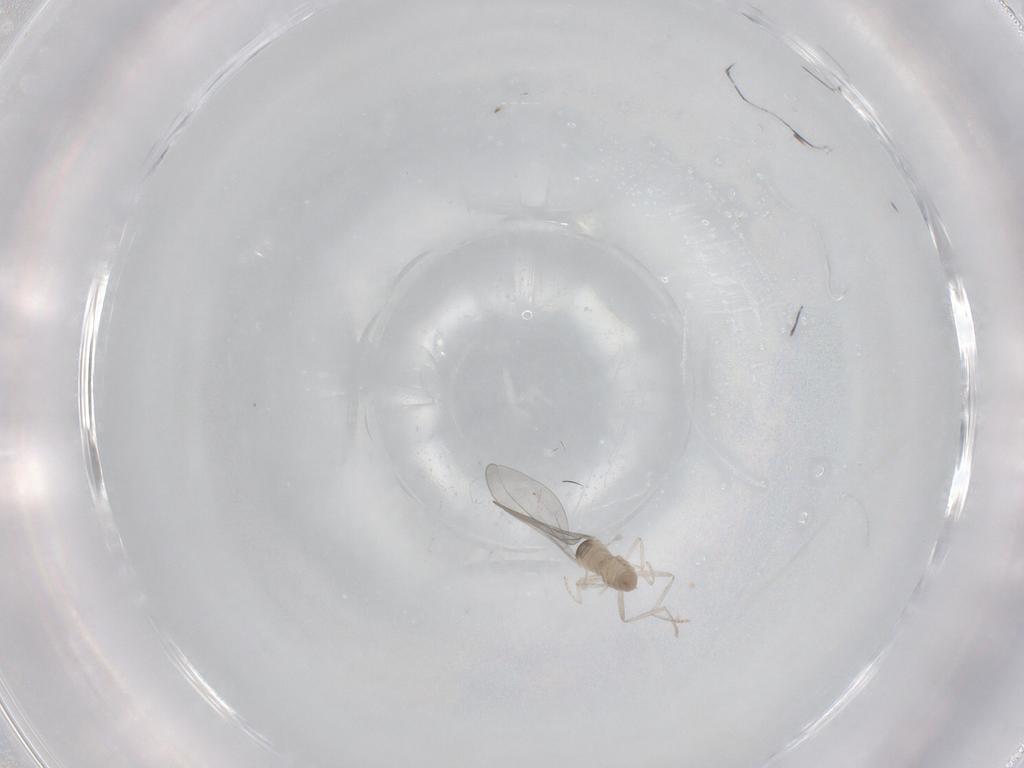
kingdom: Animalia
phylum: Arthropoda
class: Insecta
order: Diptera
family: Cecidomyiidae
